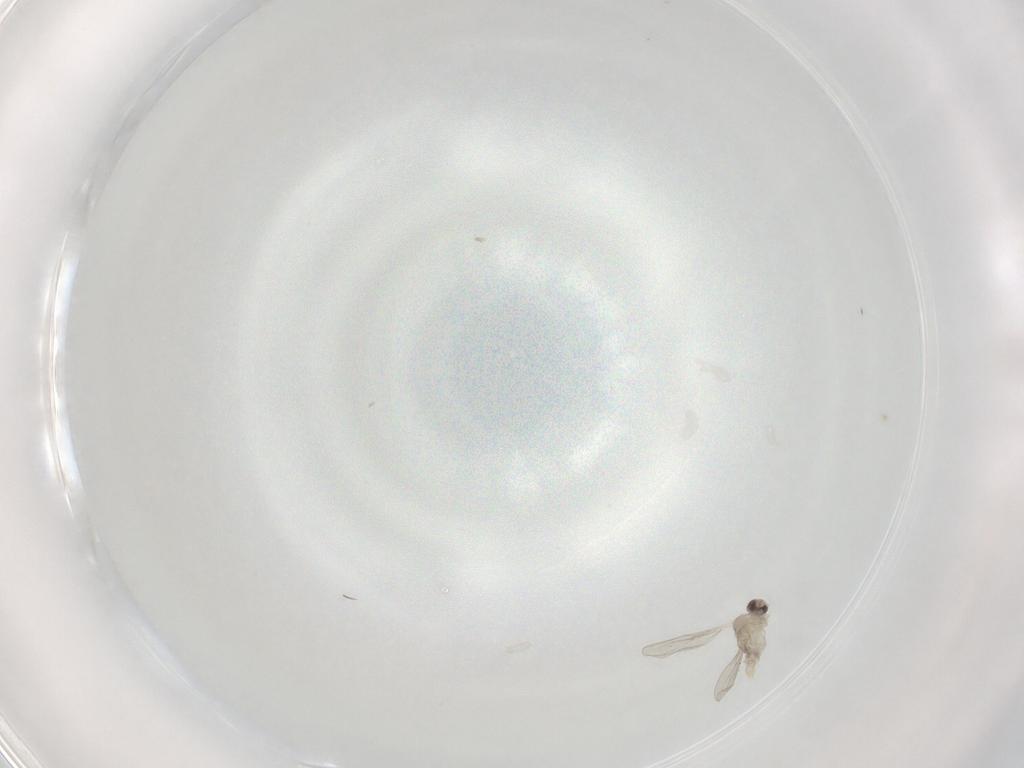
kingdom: Animalia
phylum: Arthropoda
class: Insecta
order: Diptera
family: Cecidomyiidae
